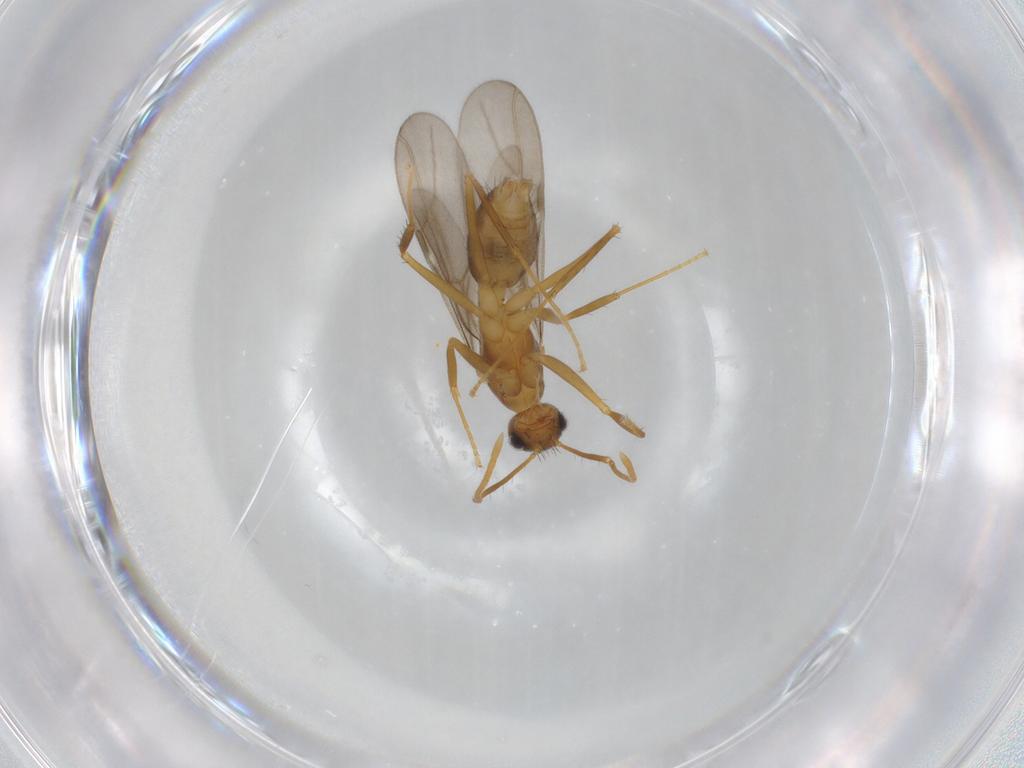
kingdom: Animalia
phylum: Arthropoda
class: Insecta
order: Hymenoptera
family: Formicidae
